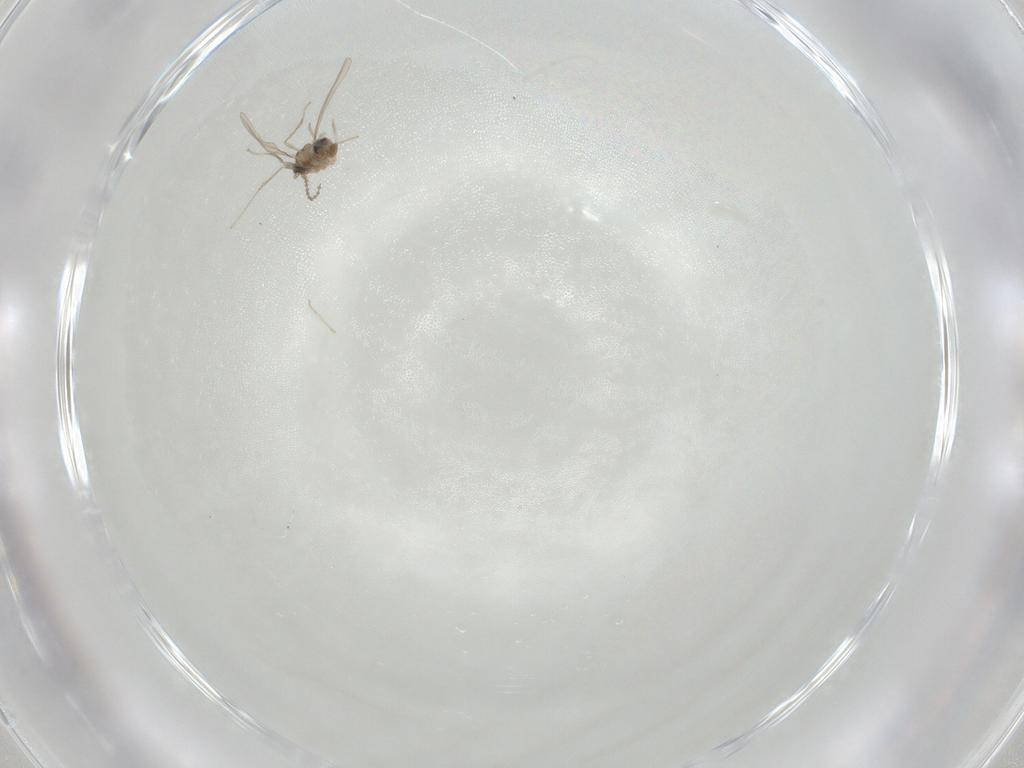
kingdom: Animalia
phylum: Arthropoda
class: Insecta
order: Diptera
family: Cecidomyiidae
